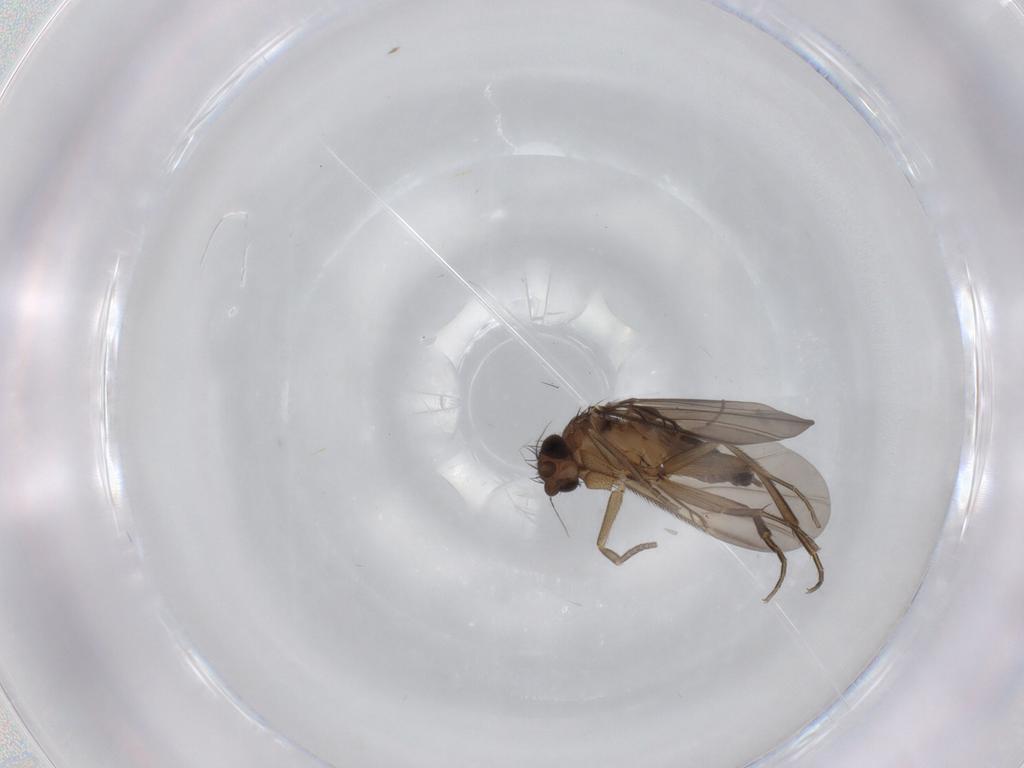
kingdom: Animalia
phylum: Arthropoda
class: Insecta
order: Diptera
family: Phoridae
